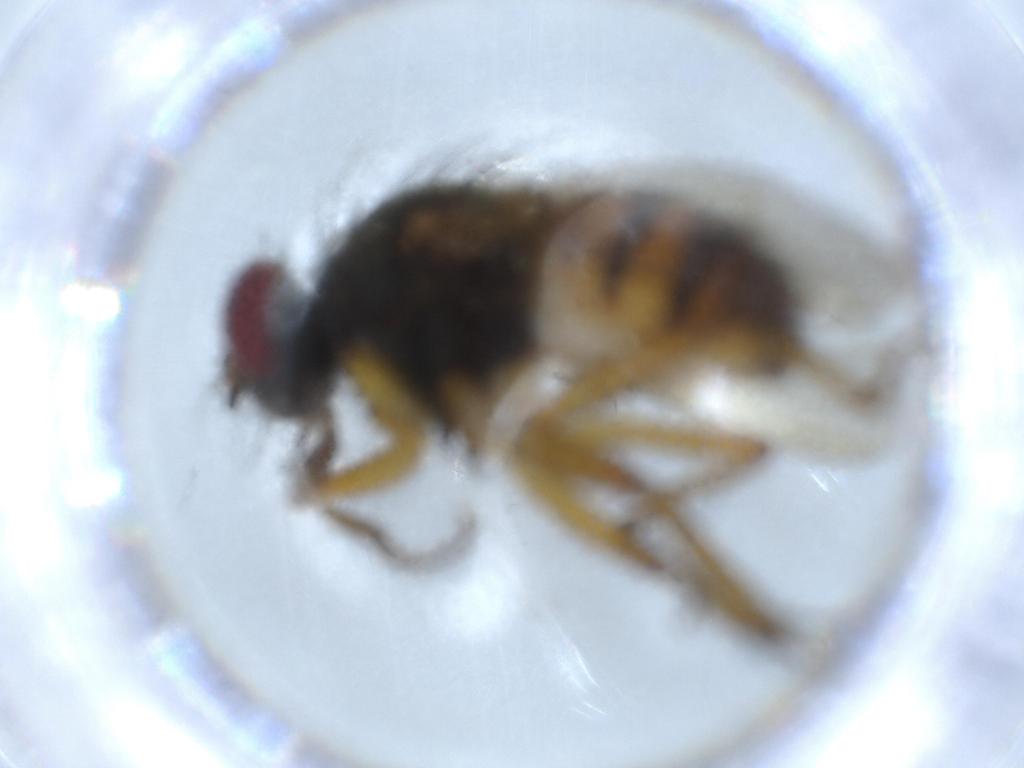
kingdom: Animalia
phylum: Arthropoda
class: Insecta
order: Diptera
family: Muscidae
